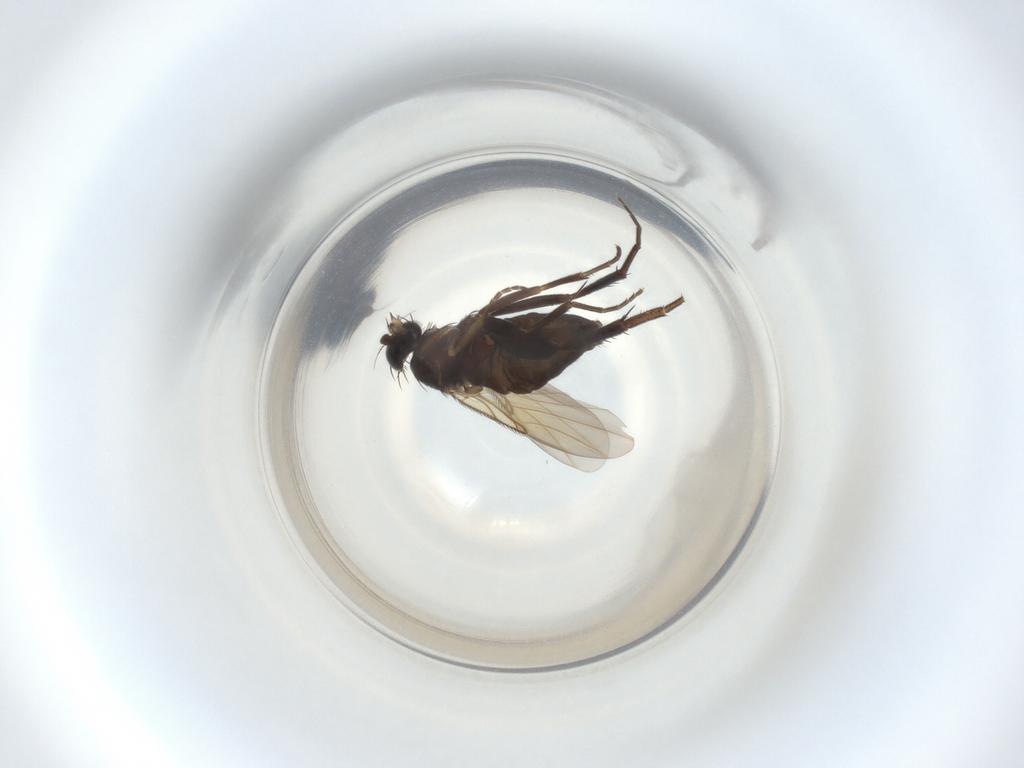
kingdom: Animalia
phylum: Arthropoda
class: Insecta
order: Diptera
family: Phoridae
